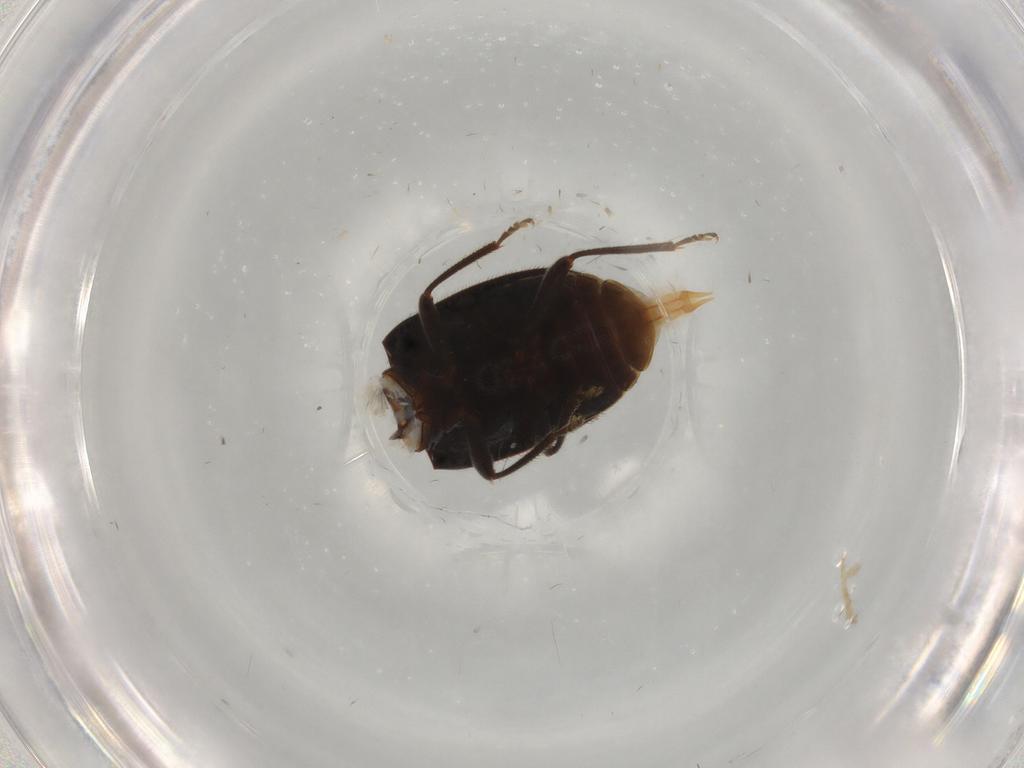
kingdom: Animalia
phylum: Arthropoda
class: Insecta
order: Coleoptera
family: Ptilodactylidae
